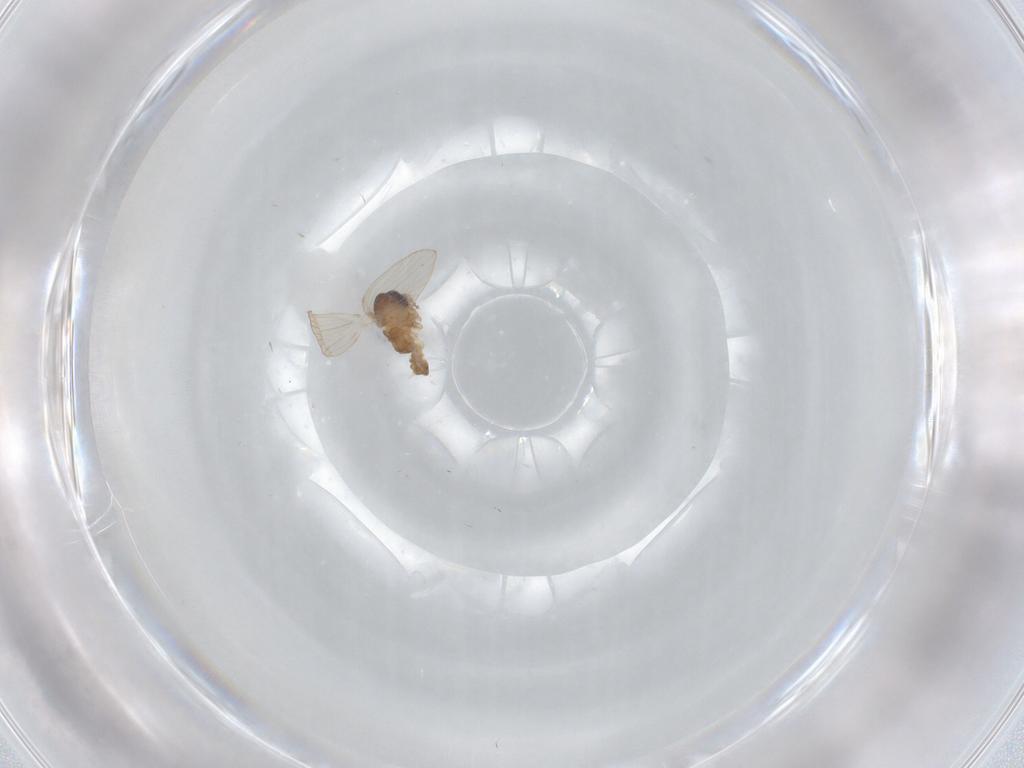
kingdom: Animalia
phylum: Arthropoda
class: Insecta
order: Diptera
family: Psychodidae
